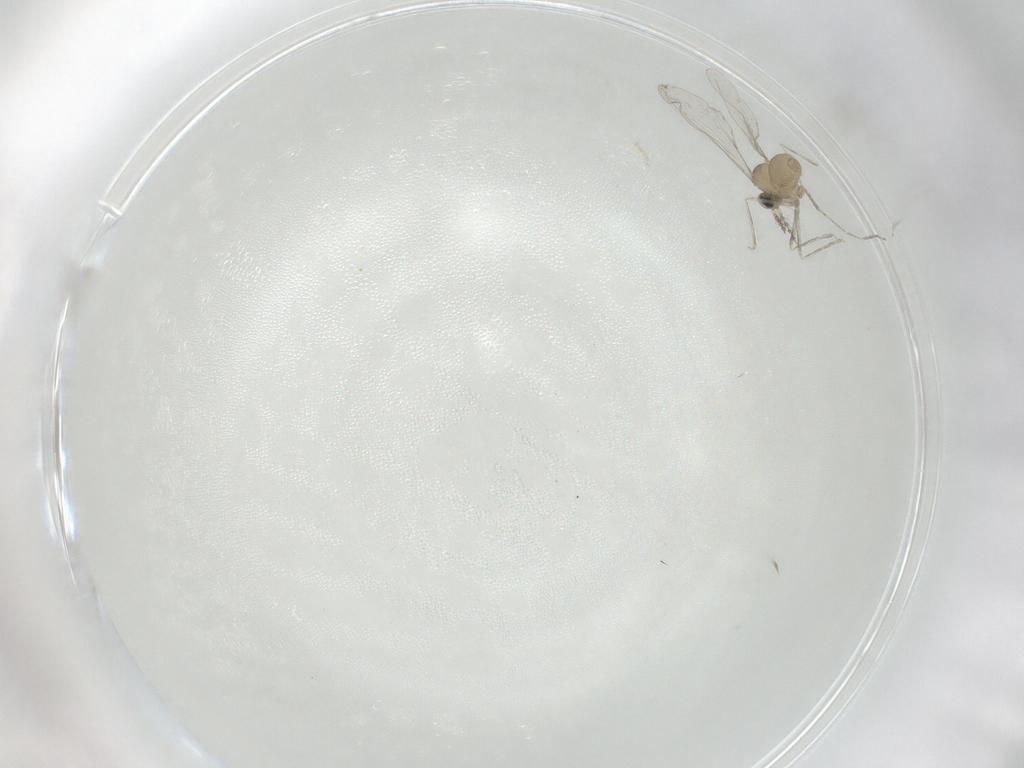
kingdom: Animalia
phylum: Arthropoda
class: Insecta
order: Diptera
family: Cecidomyiidae
